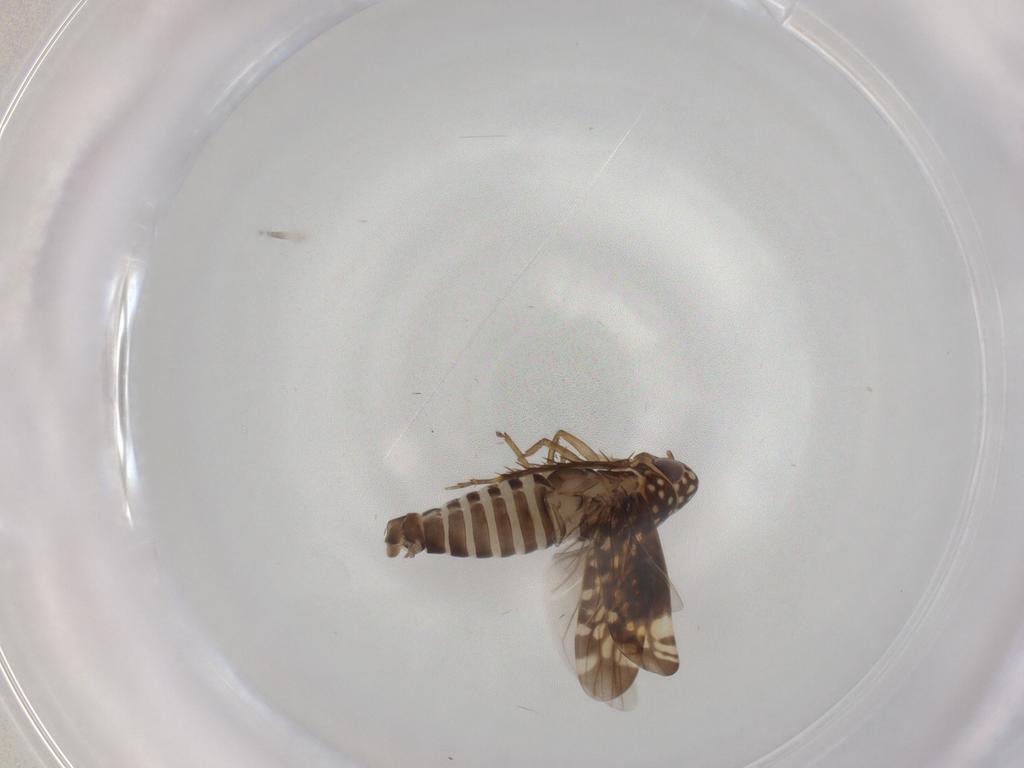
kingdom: Animalia
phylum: Arthropoda
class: Insecta
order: Hemiptera
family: Cicadellidae
